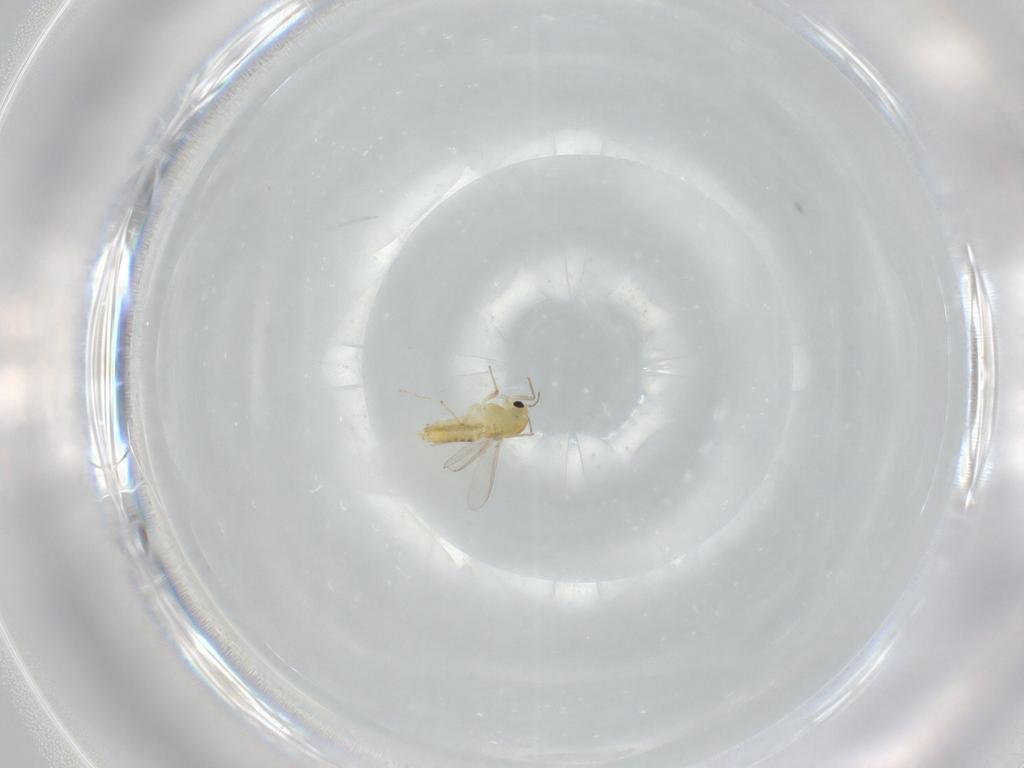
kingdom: Animalia
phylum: Arthropoda
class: Insecta
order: Diptera
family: Chironomidae
